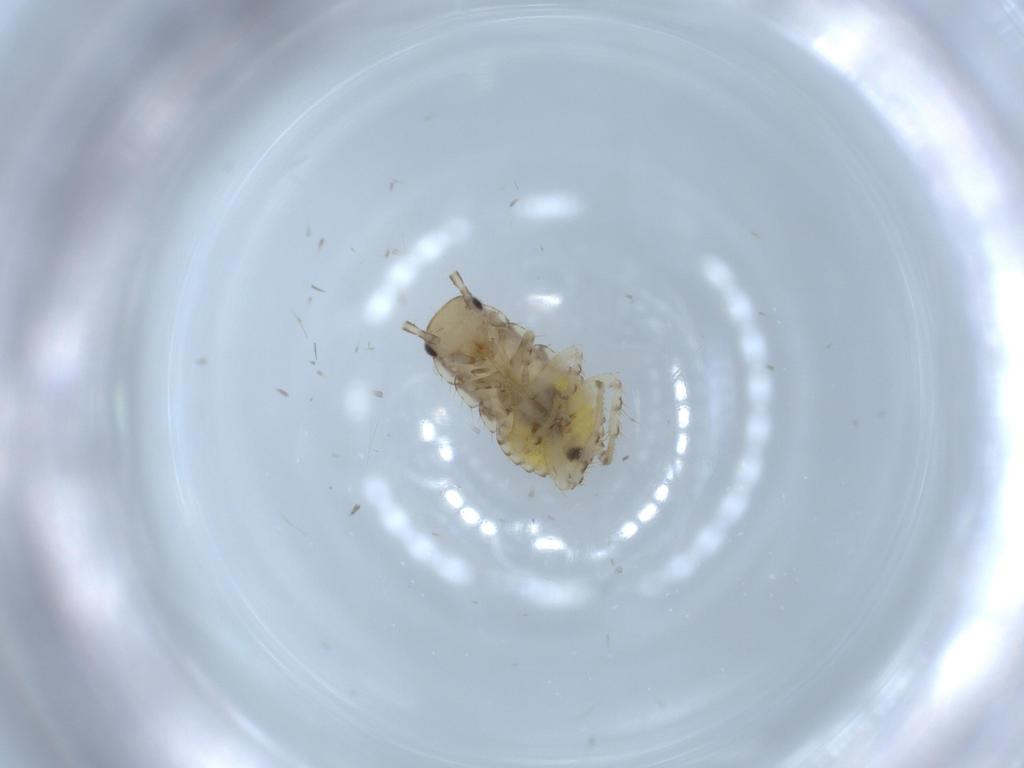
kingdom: Animalia
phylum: Arthropoda
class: Insecta
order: Blattodea
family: Ectobiidae
